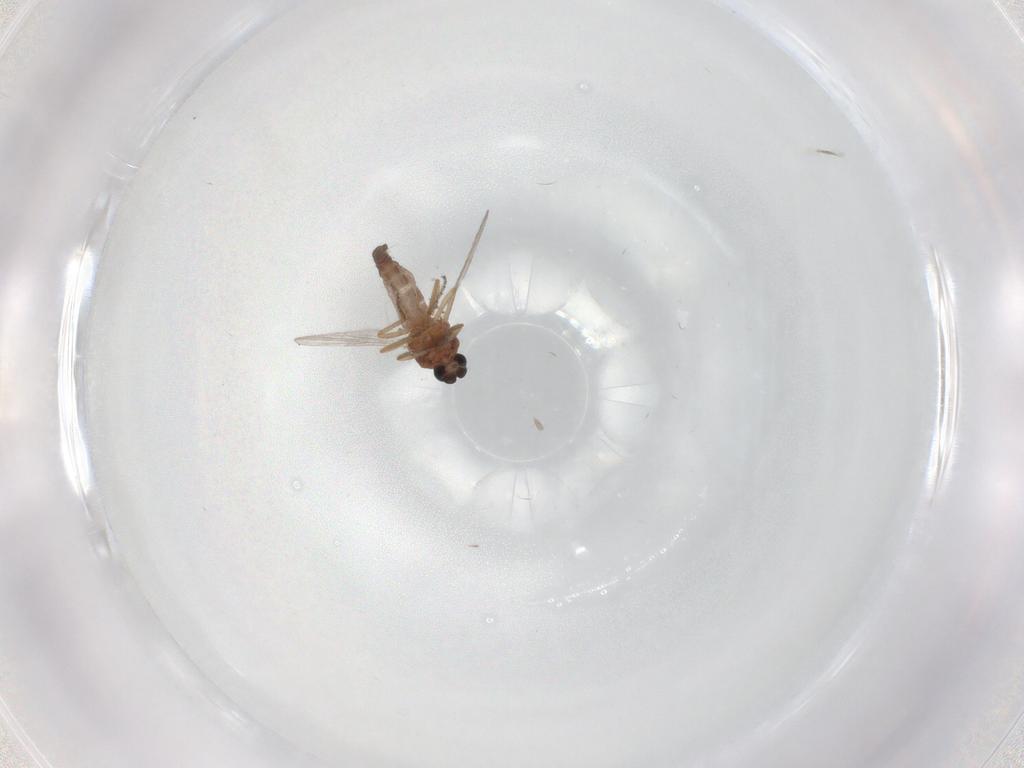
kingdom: Animalia
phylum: Arthropoda
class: Insecta
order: Diptera
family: Ceratopogonidae
